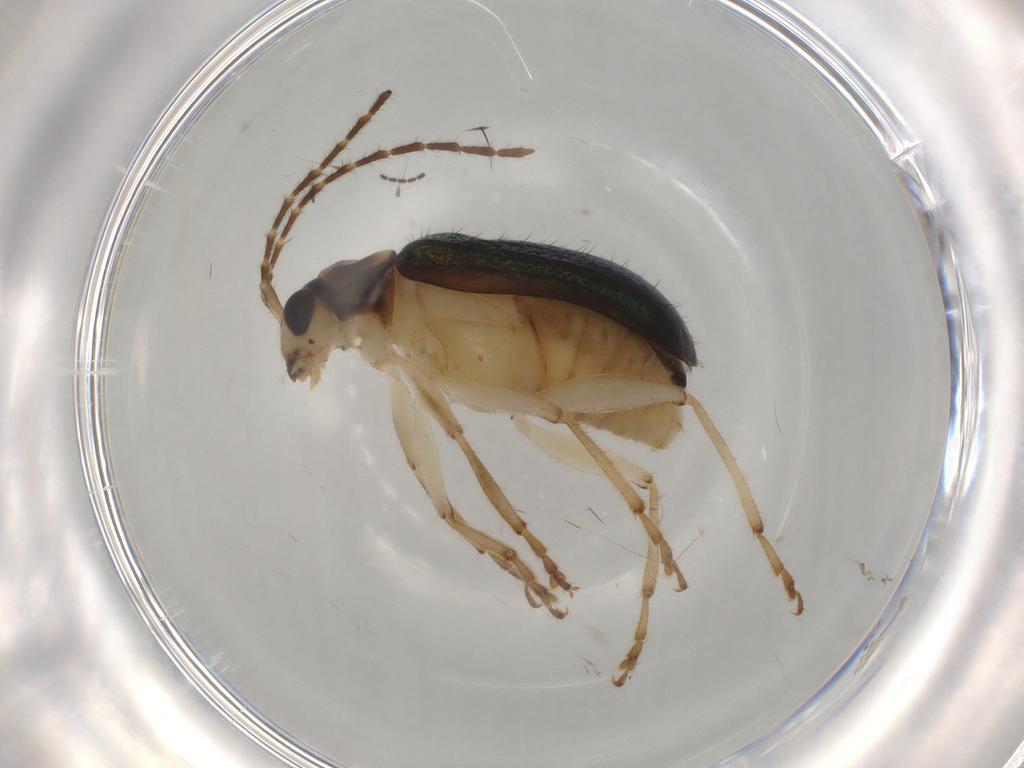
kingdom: Animalia
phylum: Arthropoda
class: Insecta
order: Coleoptera
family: Chrysomelidae
